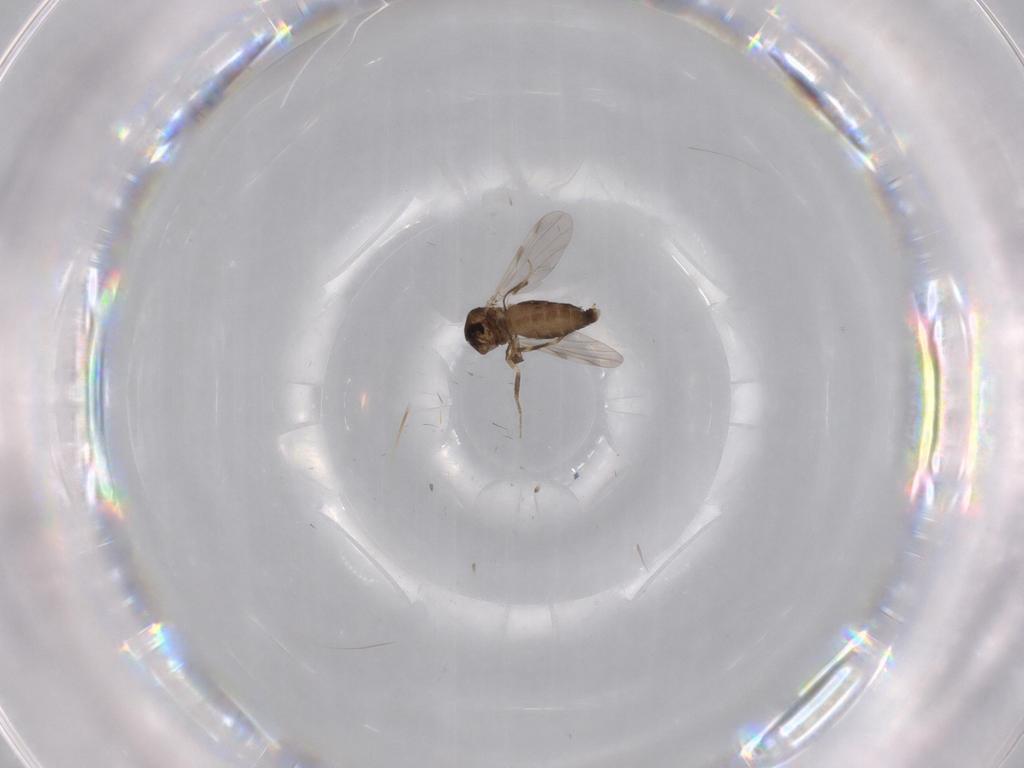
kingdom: Animalia
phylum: Arthropoda
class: Insecta
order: Diptera
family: Ceratopogonidae
